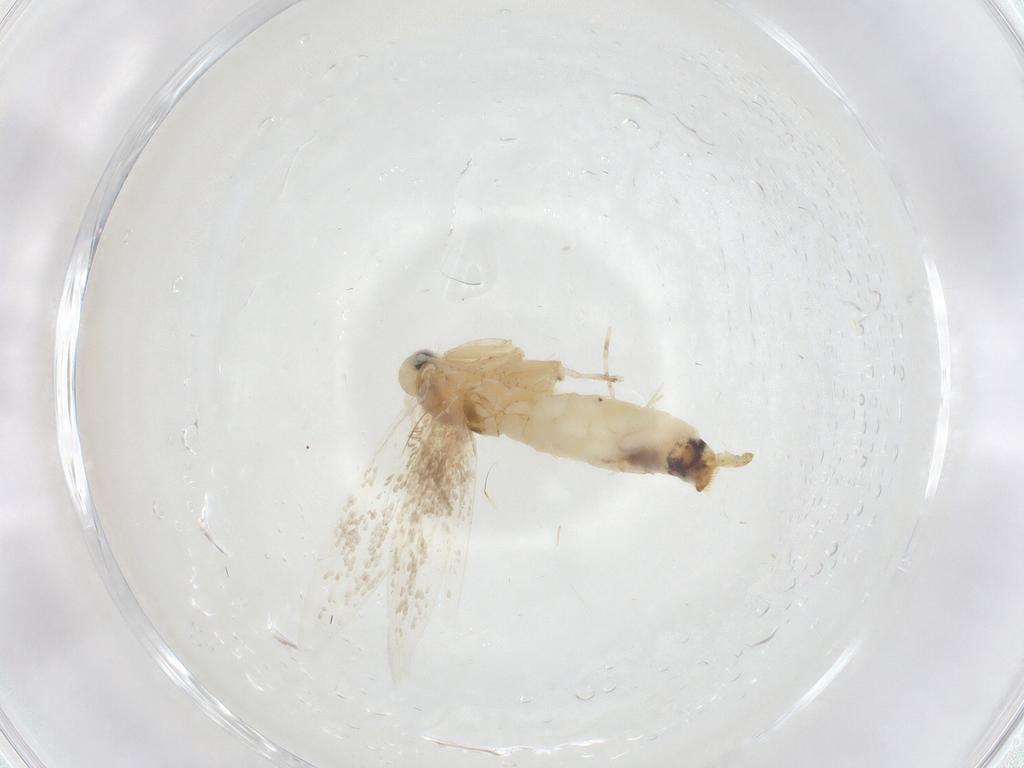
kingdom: Animalia
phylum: Arthropoda
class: Insecta
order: Lepidoptera
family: Gracillariidae
